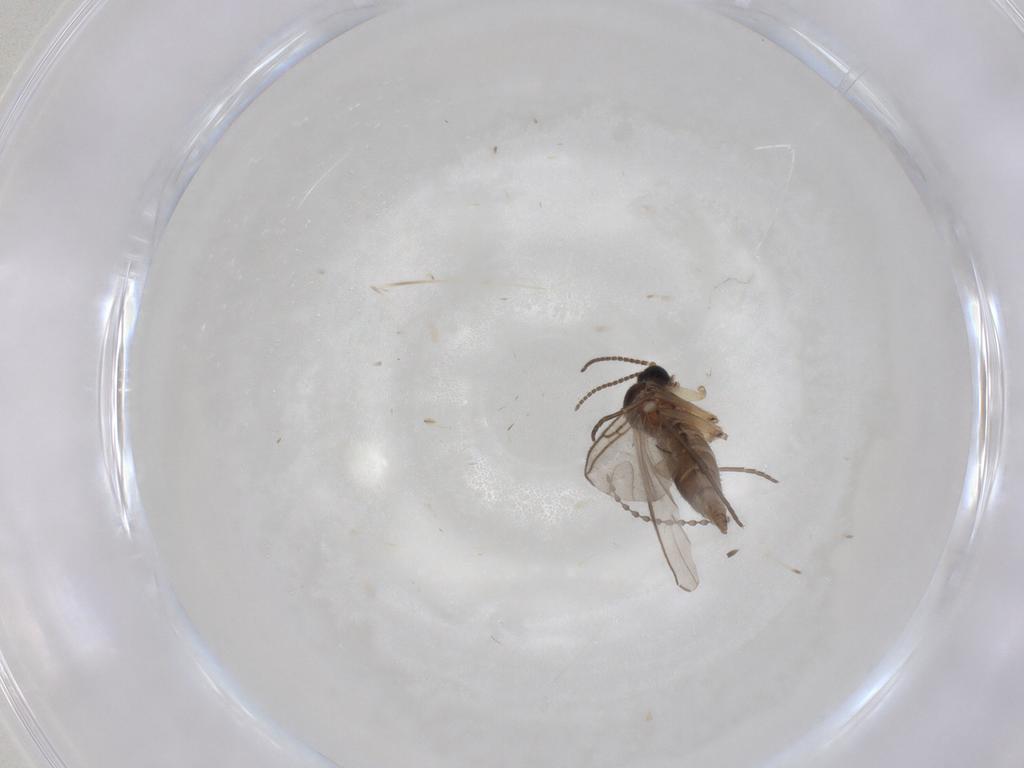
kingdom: Animalia
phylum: Arthropoda
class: Insecta
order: Diptera
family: Sciaridae
